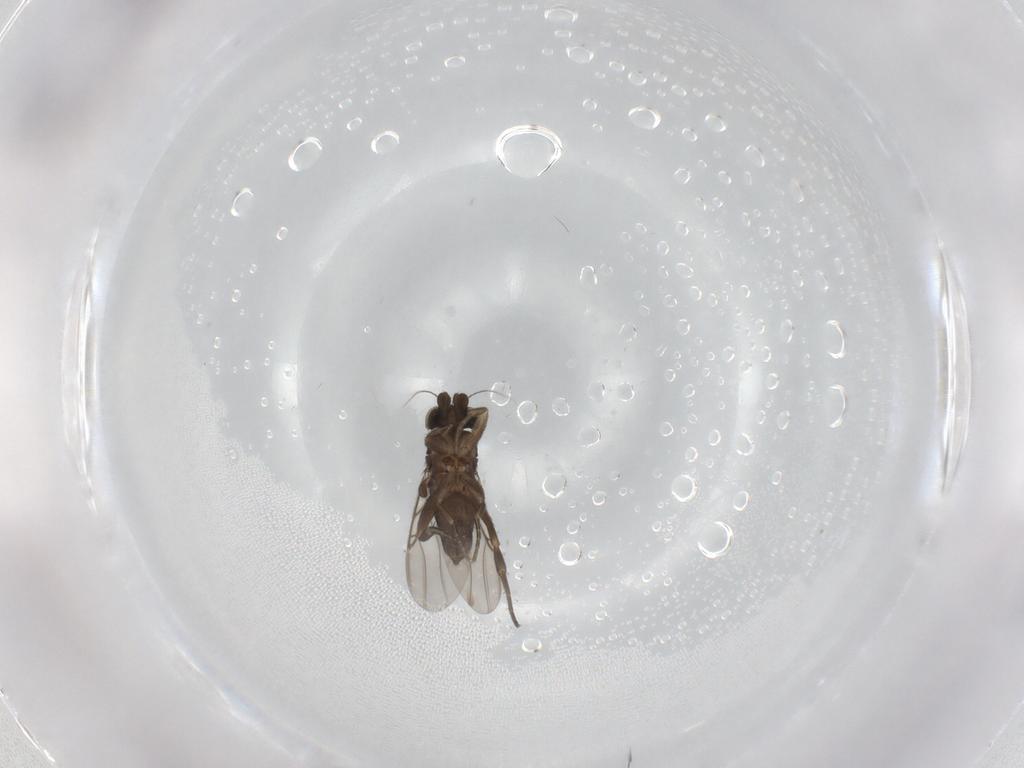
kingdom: Animalia
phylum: Arthropoda
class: Insecta
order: Diptera
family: Phoridae
